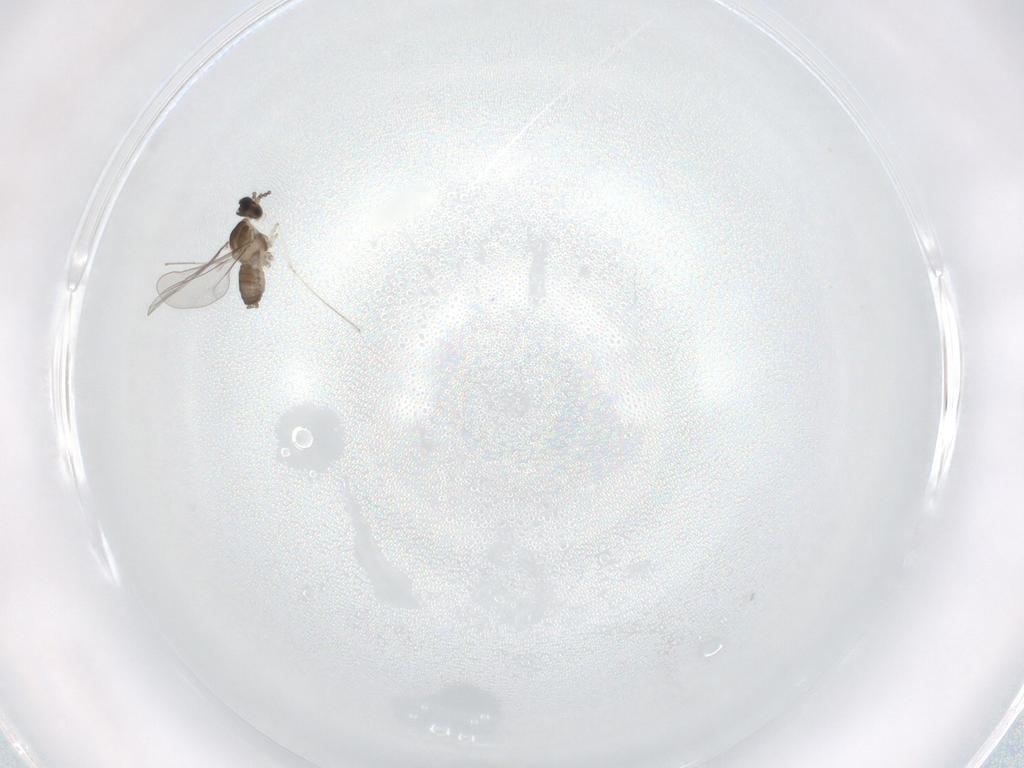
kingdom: Animalia
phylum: Arthropoda
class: Insecta
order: Diptera
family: Cecidomyiidae
